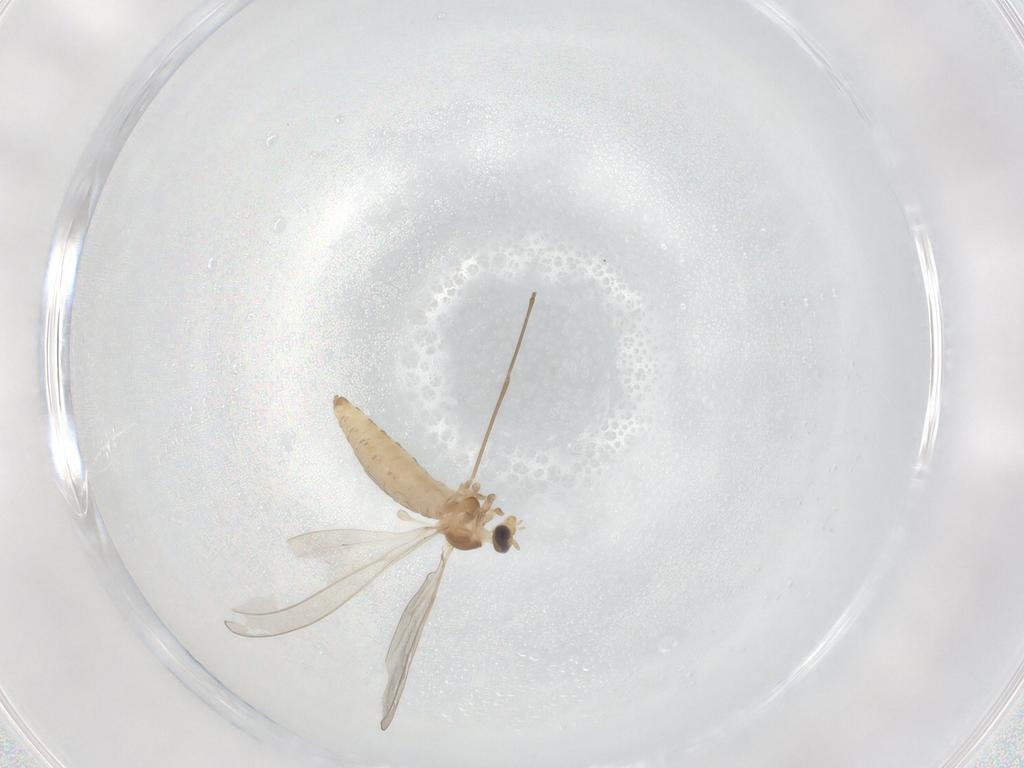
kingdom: Animalia
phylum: Arthropoda
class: Insecta
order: Diptera
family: Cecidomyiidae
